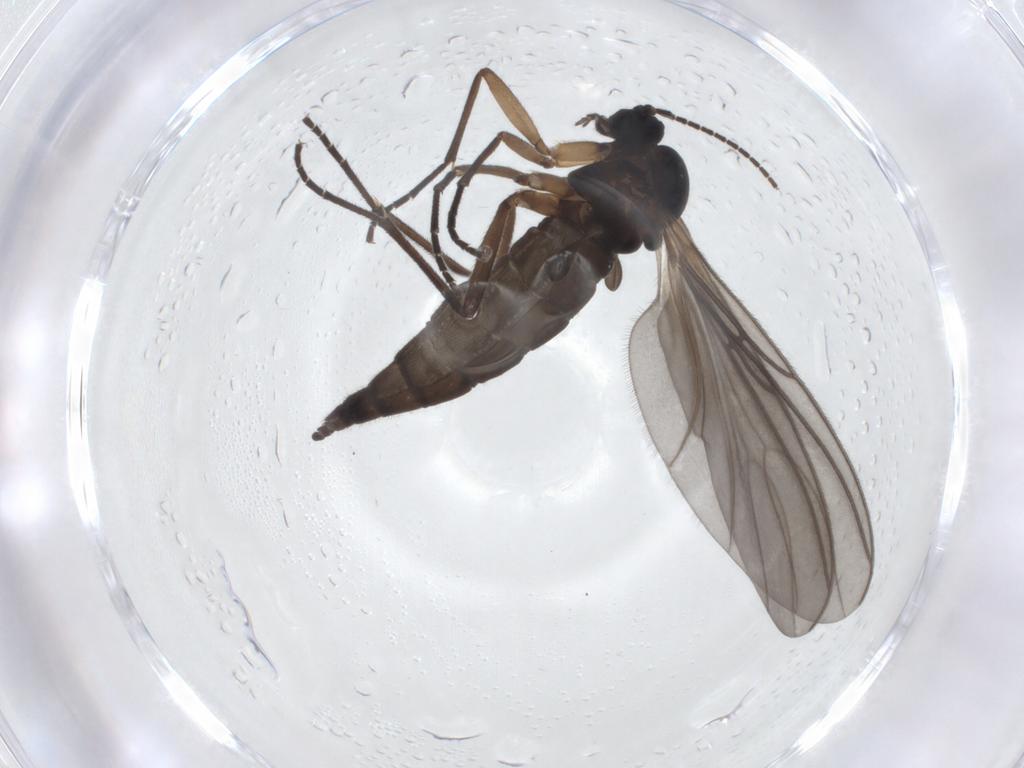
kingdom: Animalia
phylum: Arthropoda
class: Insecta
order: Diptera
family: Sciaridae
